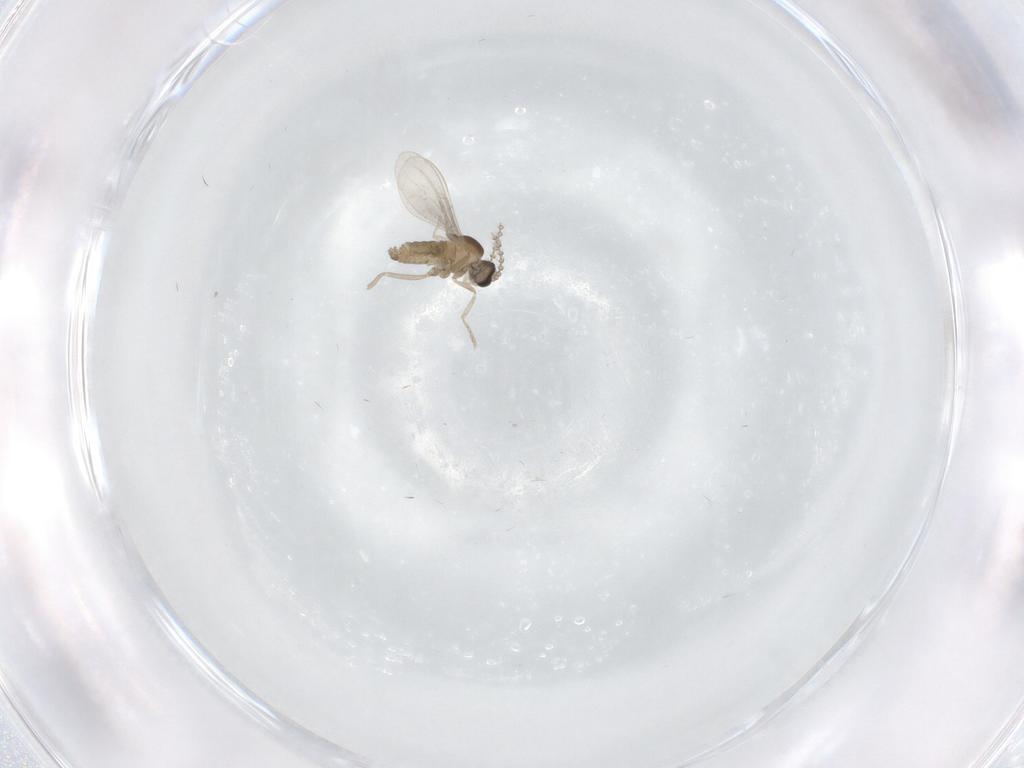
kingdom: Animalia
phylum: Arthropoda
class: Insecta
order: Diptera
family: Cecidomyiidae
